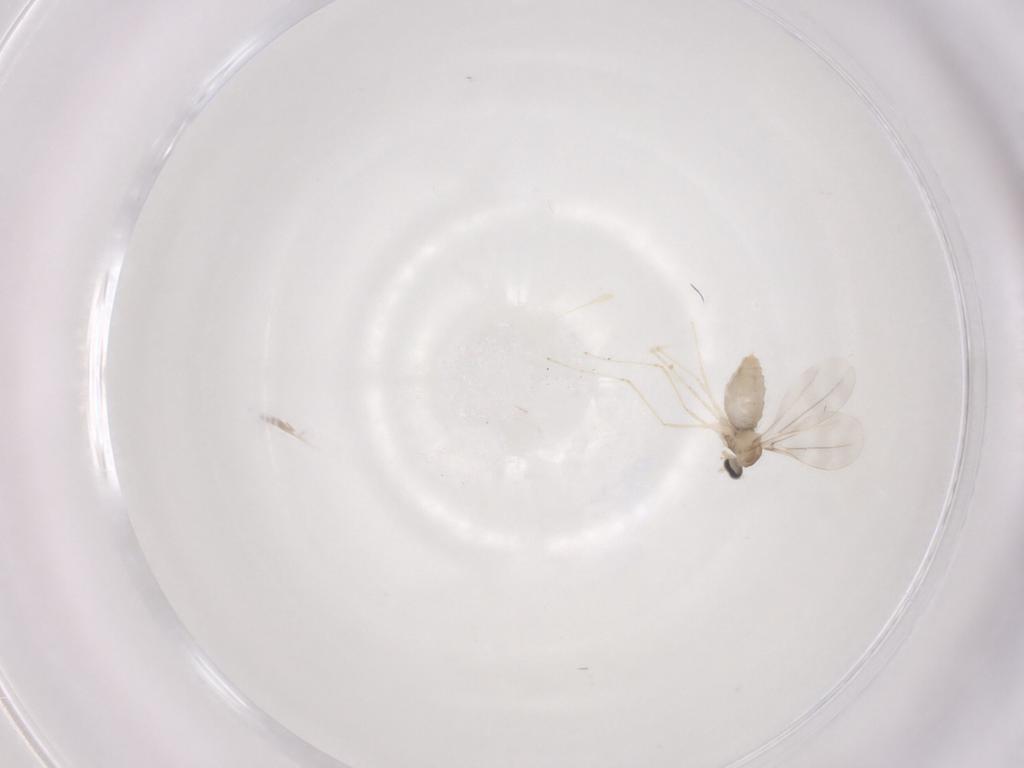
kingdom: Animalia
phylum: Arthropoda
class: Insecta
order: Diptera
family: Cecidomyiidae
